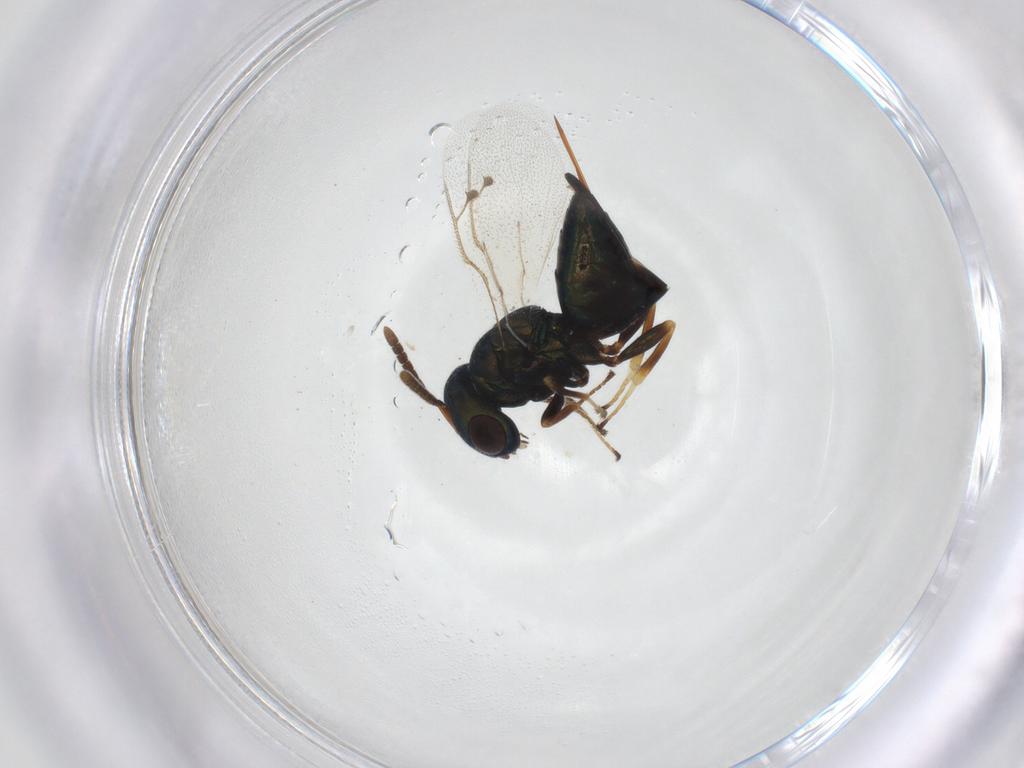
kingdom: Animalia
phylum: Arthropoda
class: Insecta
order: Hymenoptera
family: Pteromalidae
